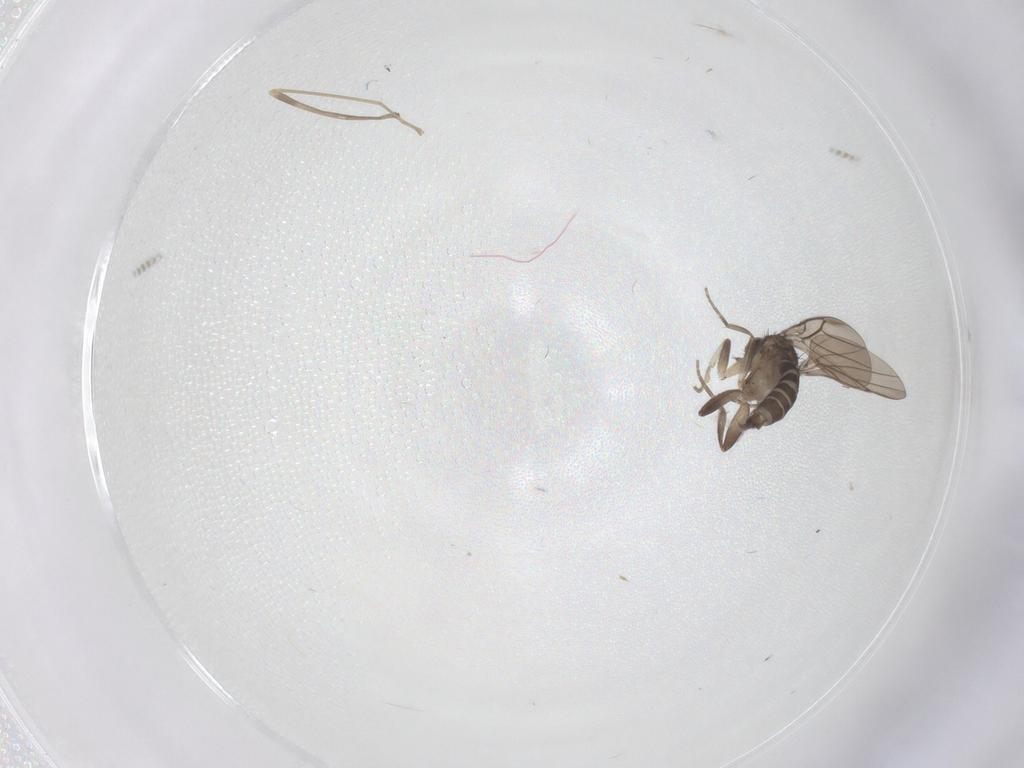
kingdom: Animalia
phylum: Arthropoda
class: Insecta
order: Diptera
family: Limoniidae
